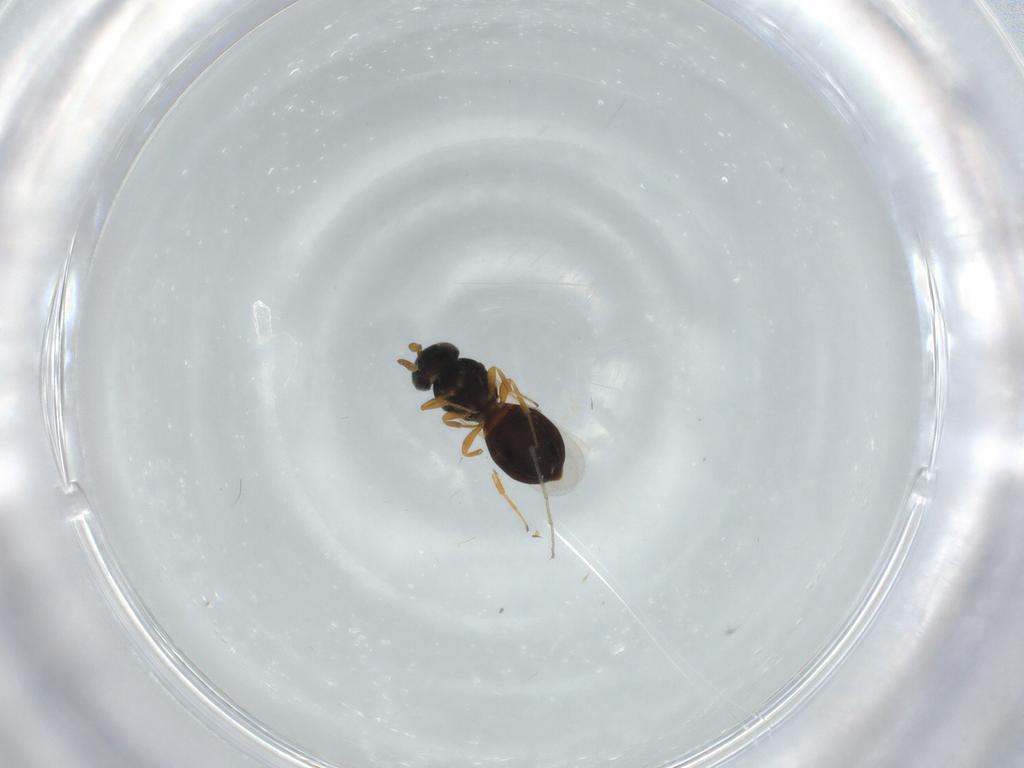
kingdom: Animalia
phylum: Arthropoda
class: Insecta
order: Hymenoptera
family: Scelionidae
